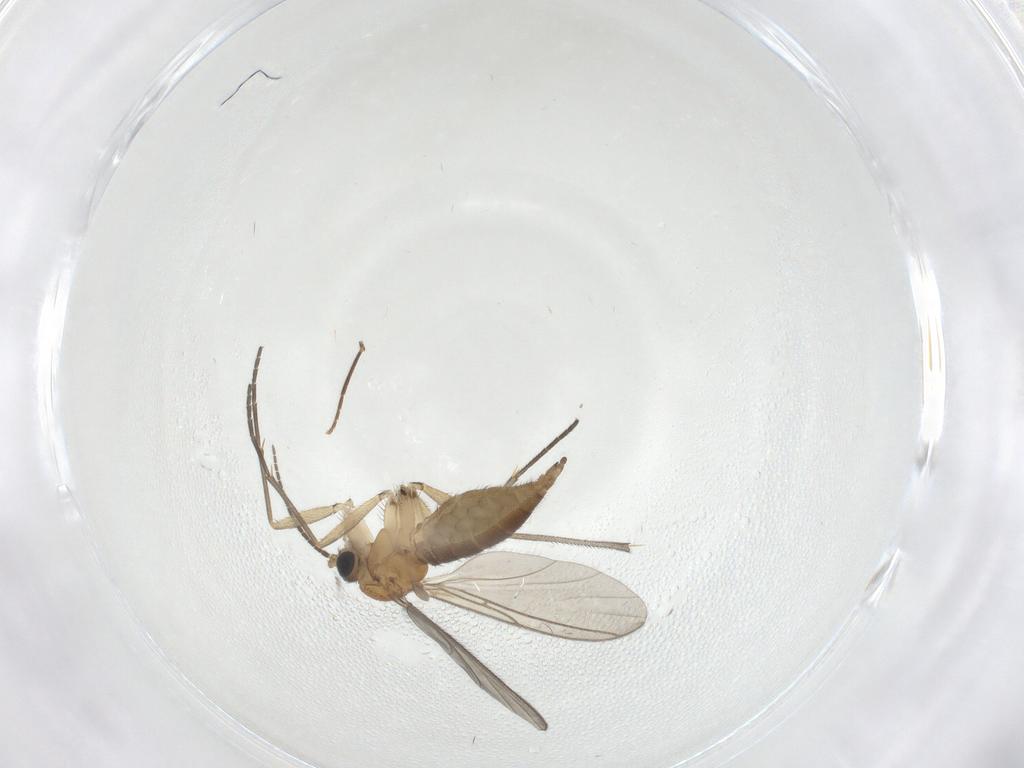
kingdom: Animalia
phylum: Arthropoda
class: Insecta
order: Diptera
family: Sciaridae
